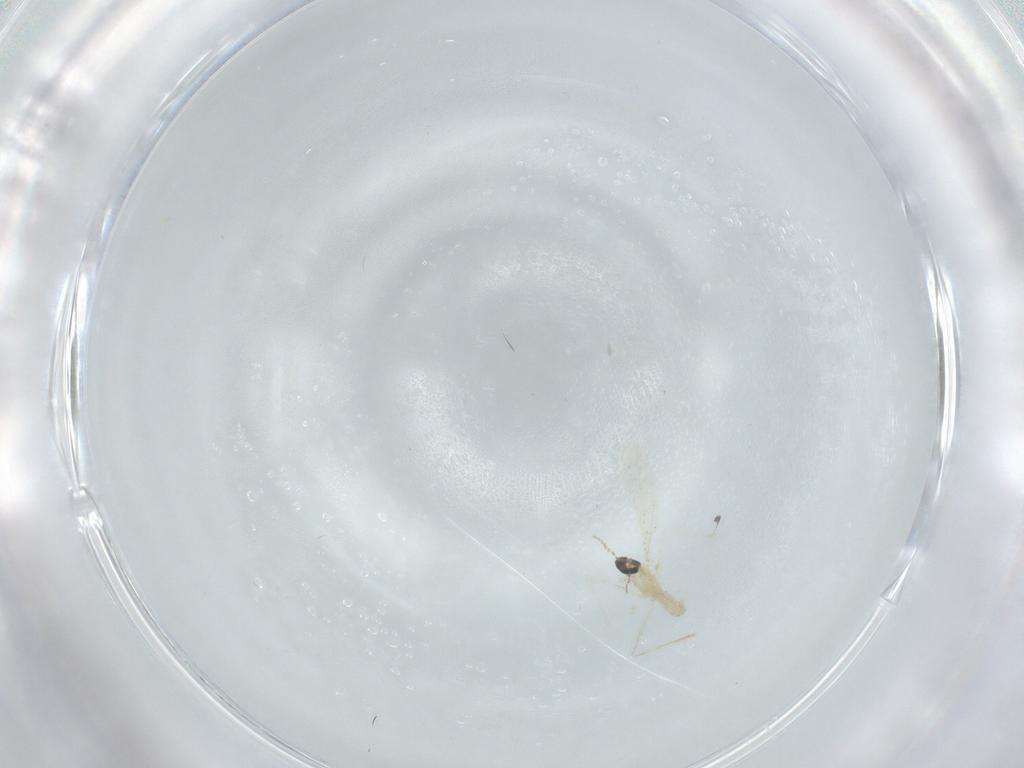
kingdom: Animalia
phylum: Arthropoda
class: Insecta
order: Diptera
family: Cecidomyiidae
